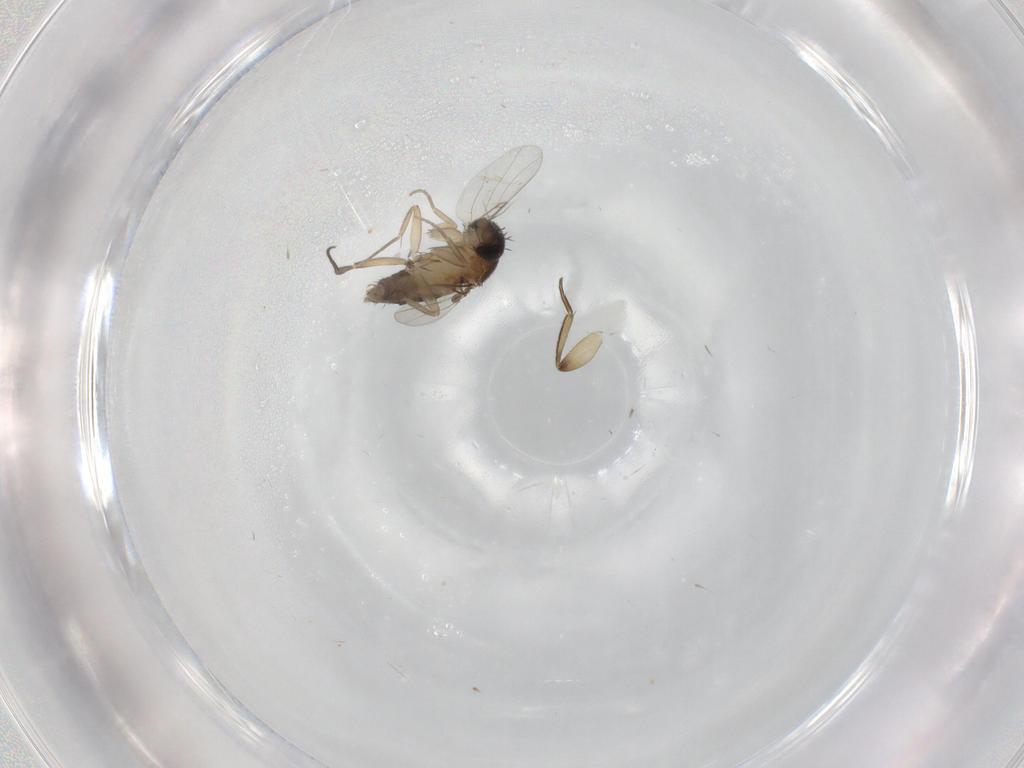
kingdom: Animalia
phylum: Arthropoda
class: Insecta
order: Diptera
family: Phoridae
